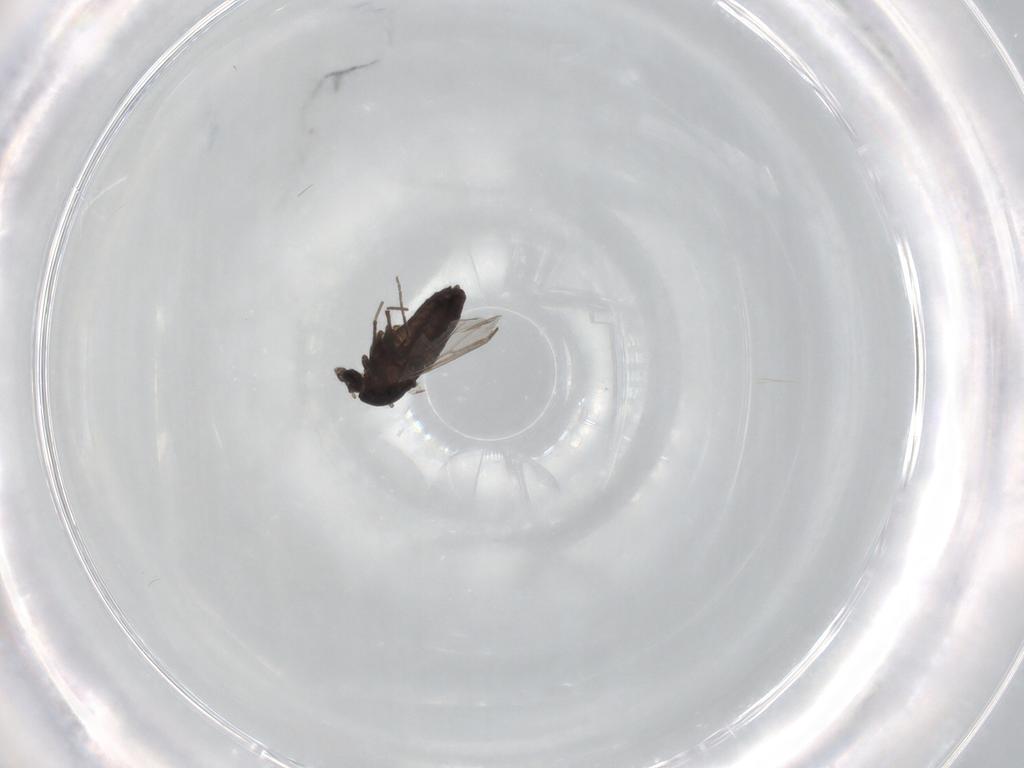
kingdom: Animalia
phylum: Arthropoda
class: Insecta
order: Diptera
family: Chironomidae
